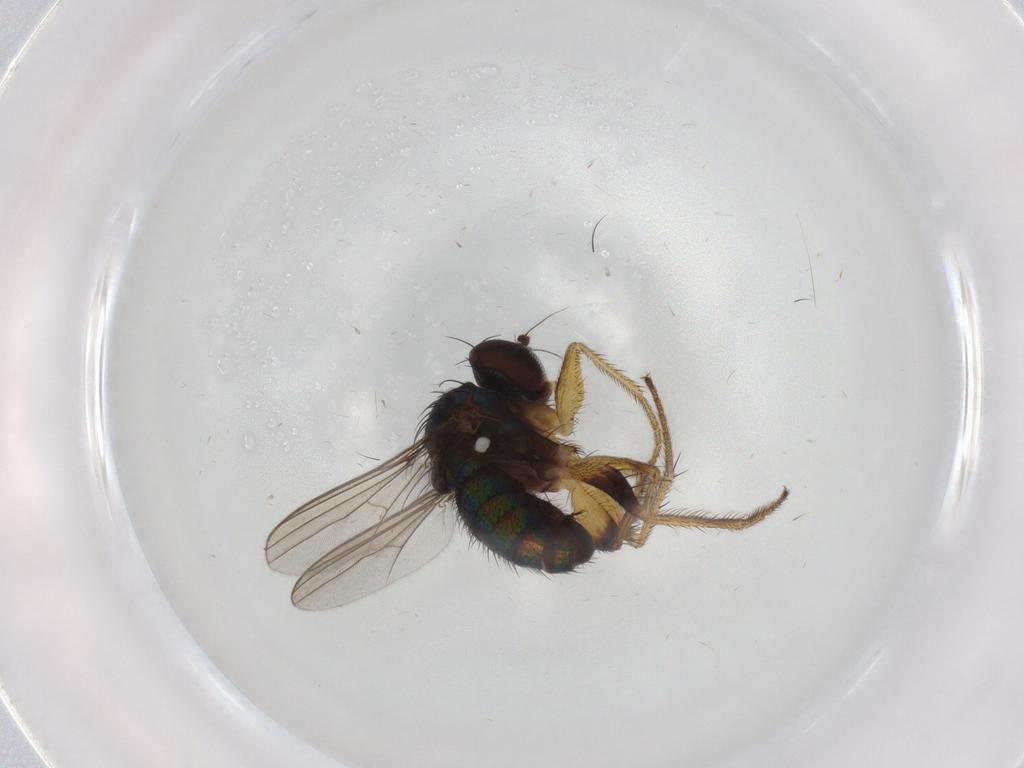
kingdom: Animalia
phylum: Arthropoda
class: Insecta
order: Diptera
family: Dolichopodidae
